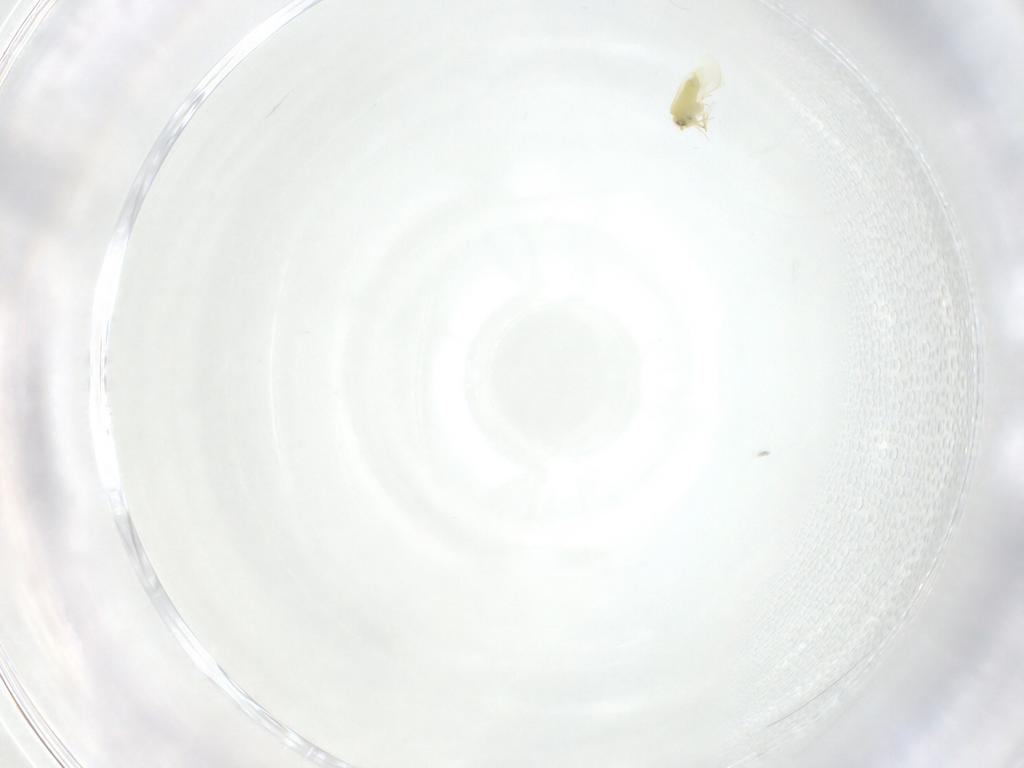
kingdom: Animalia
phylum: Arthropoda
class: Insecta
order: Hemiptera
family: Aleyrodidae
